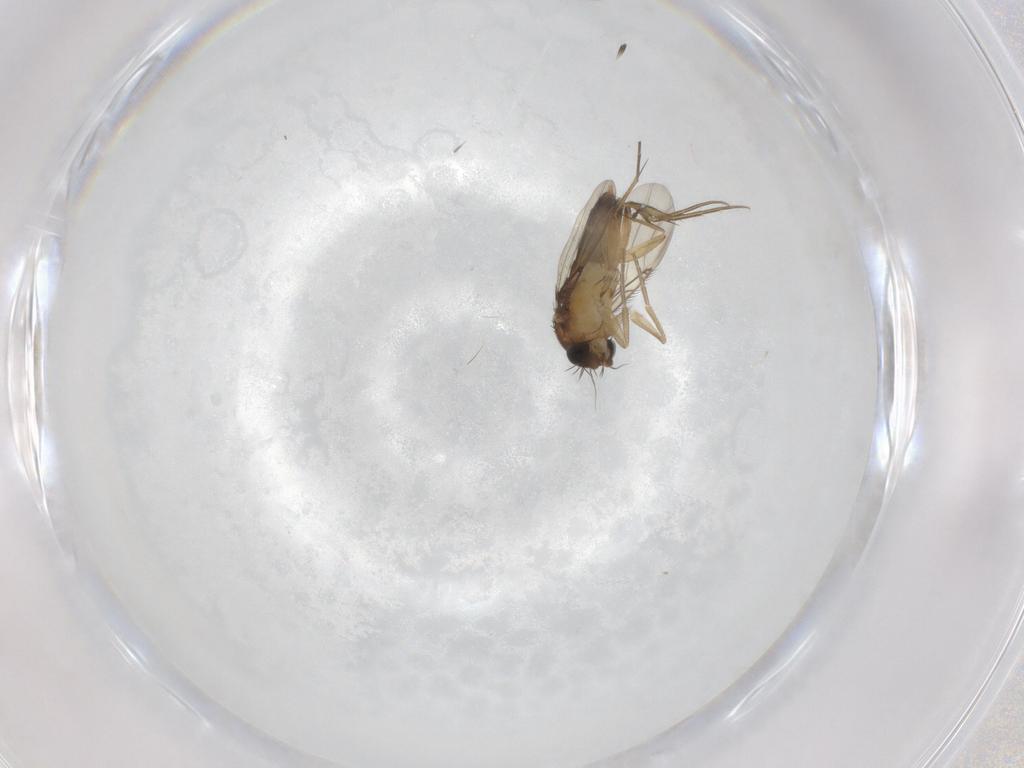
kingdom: Animalia
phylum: Arthropoda
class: Insecta
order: Diptera
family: Phoridae
